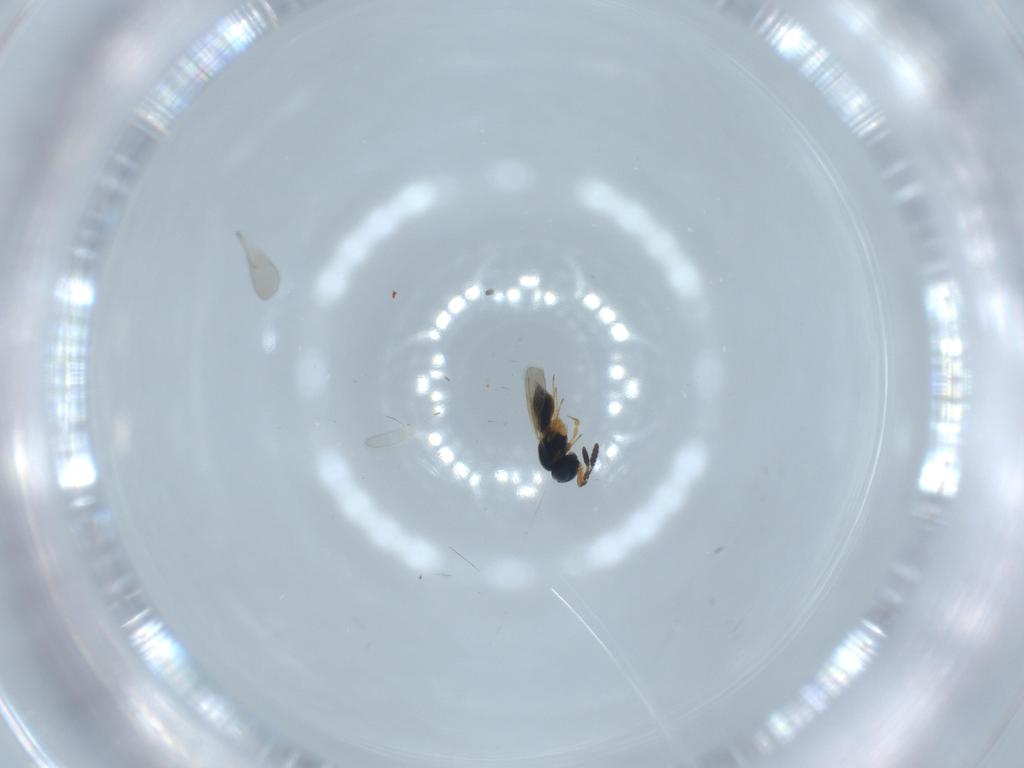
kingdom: Animalia
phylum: Arthropoda
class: Insecta
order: Hymenoptera
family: Scelionidae
